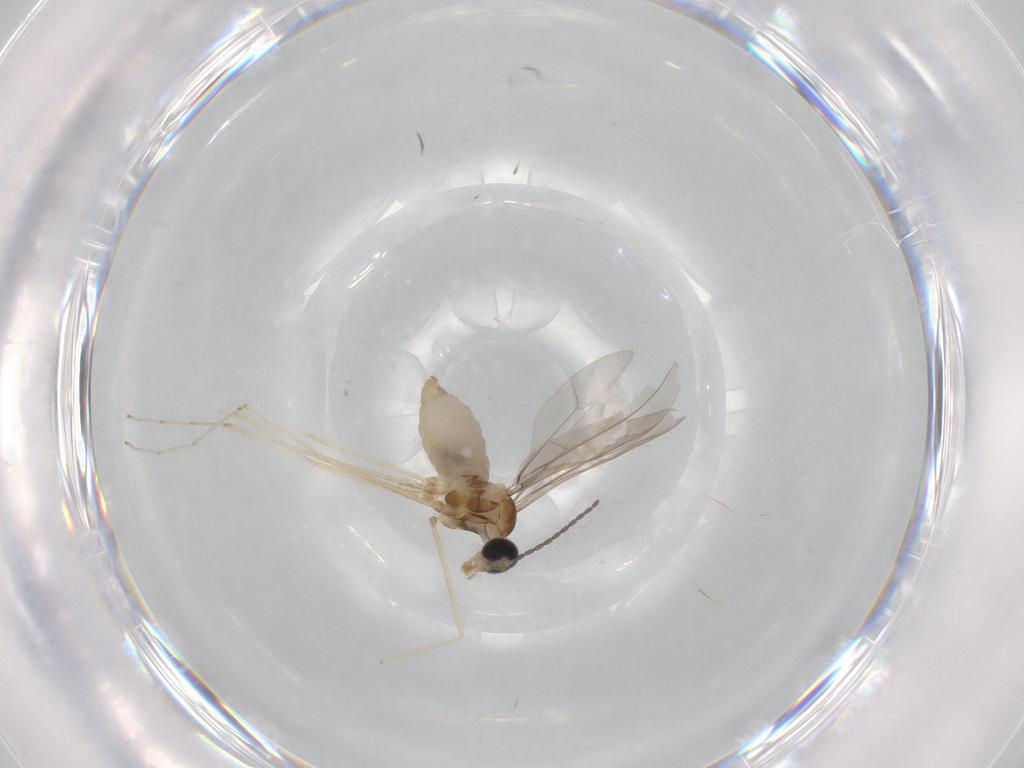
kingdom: Animalia
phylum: Arthropoda
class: Insecta
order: Diptera
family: Cecidomyiidae
